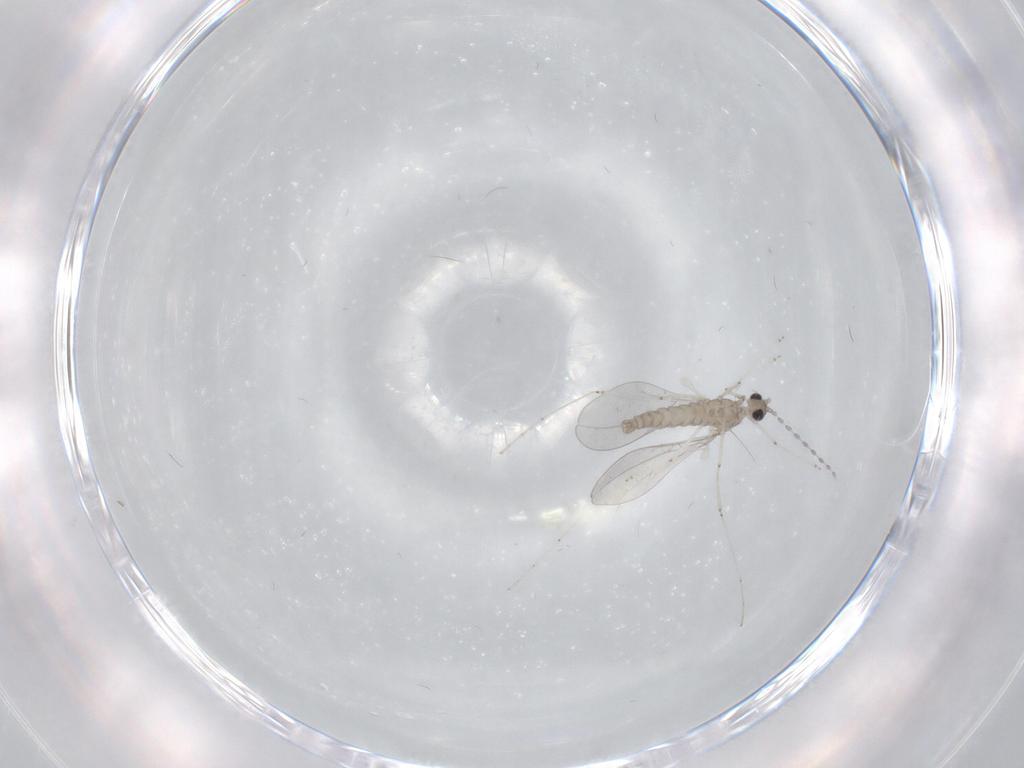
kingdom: Animalia
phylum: Arthropoda
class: Insecta
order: Diptera
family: Cecidomyiidae
